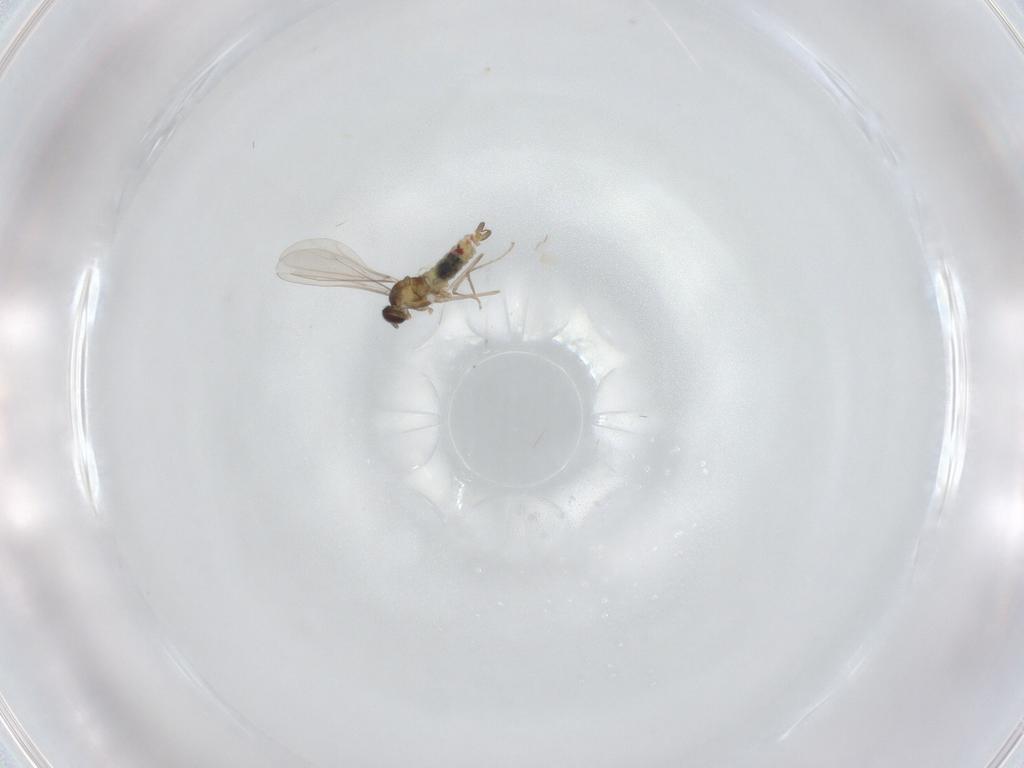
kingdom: Animalia
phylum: Arthropoda
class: Insecta
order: Diptera
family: Cecidomyiidae
